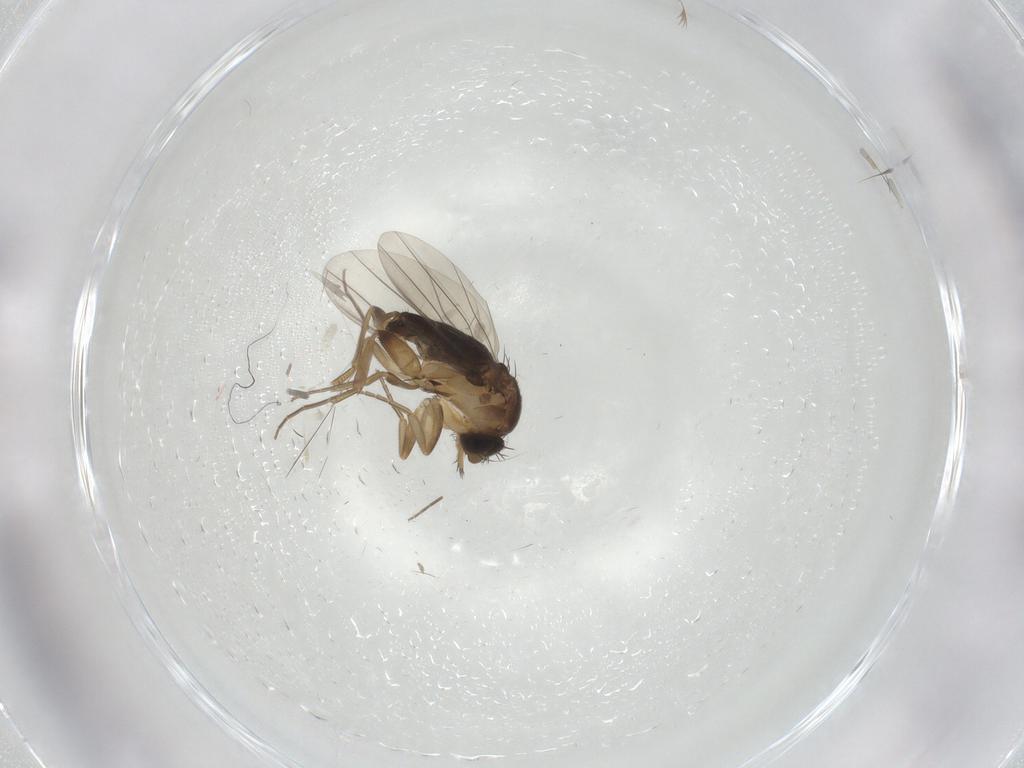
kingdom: Animalia
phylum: Arthropoda
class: Insecta
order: Diptera
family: Phoridae
